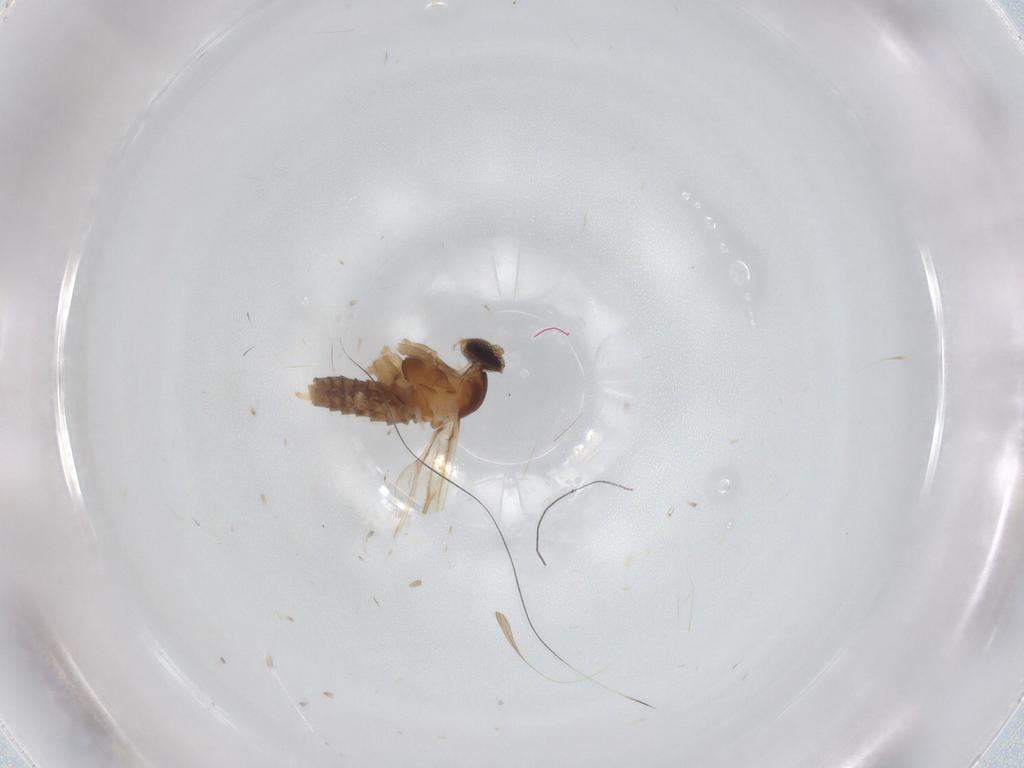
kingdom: Animalia
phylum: Arthropoda
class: Insecta
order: Diptera
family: Cecidomyiidae
